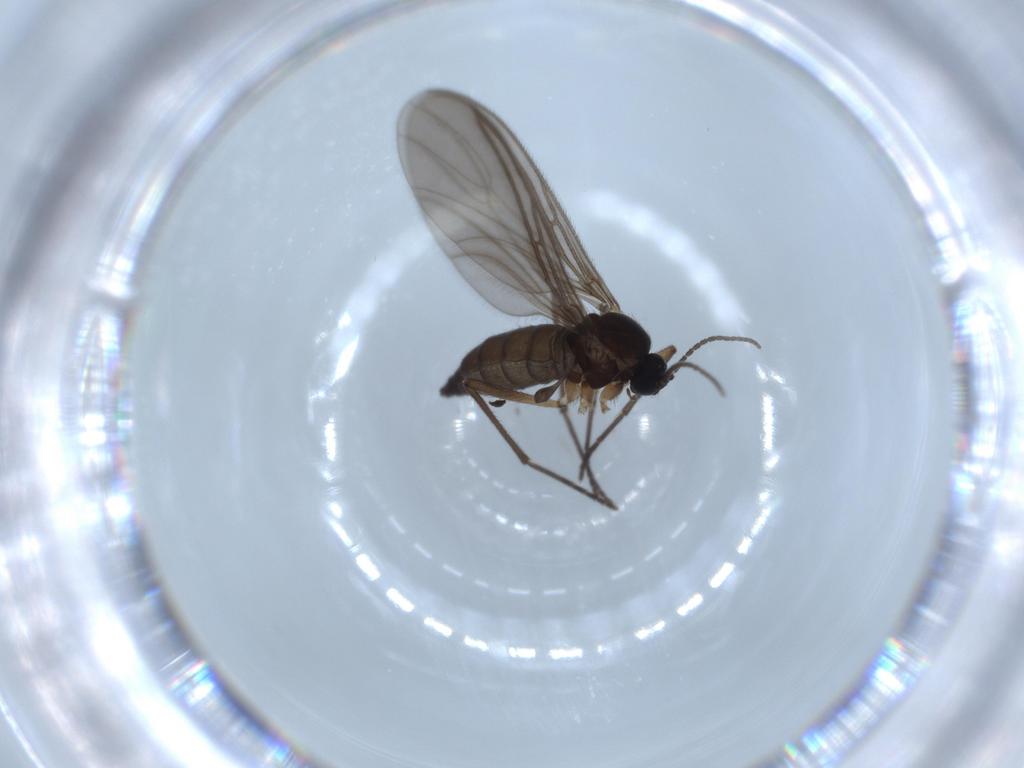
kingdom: Animalia
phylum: Arthropoda
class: Insecta
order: Diptera
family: Sciaridae
